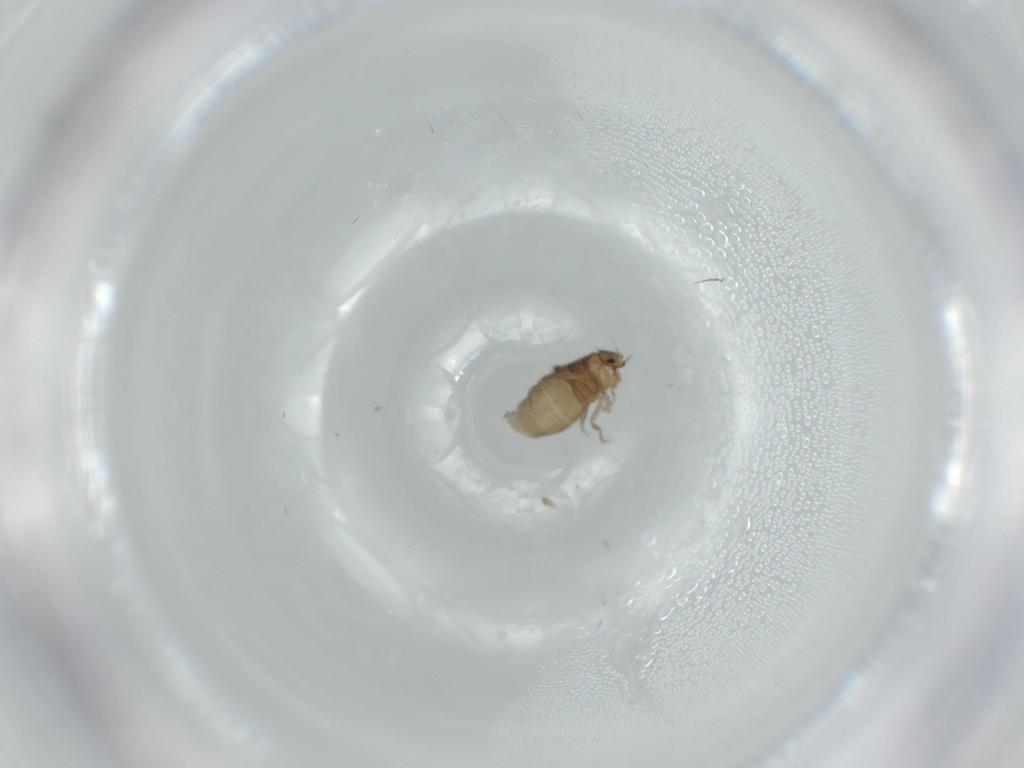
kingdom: Animalia
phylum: Arthropoda
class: Insecta
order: Diptera
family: Phoridae
